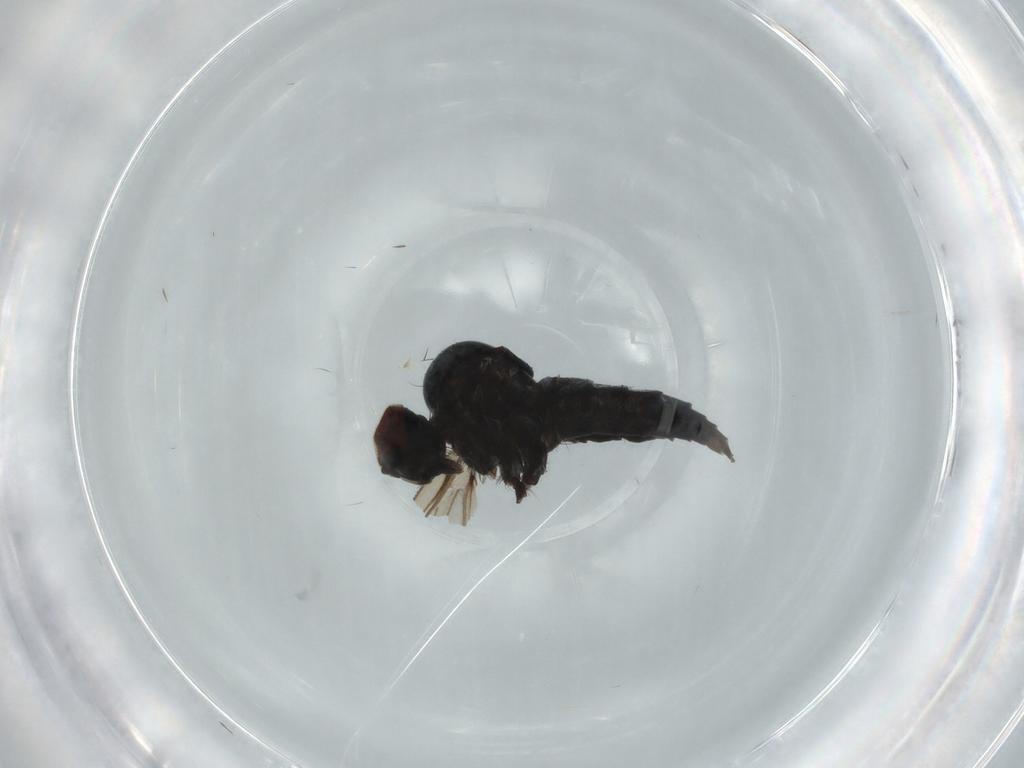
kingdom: Animalia
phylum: Arthropoda
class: Insecta
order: Diptera
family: Hybotidae
